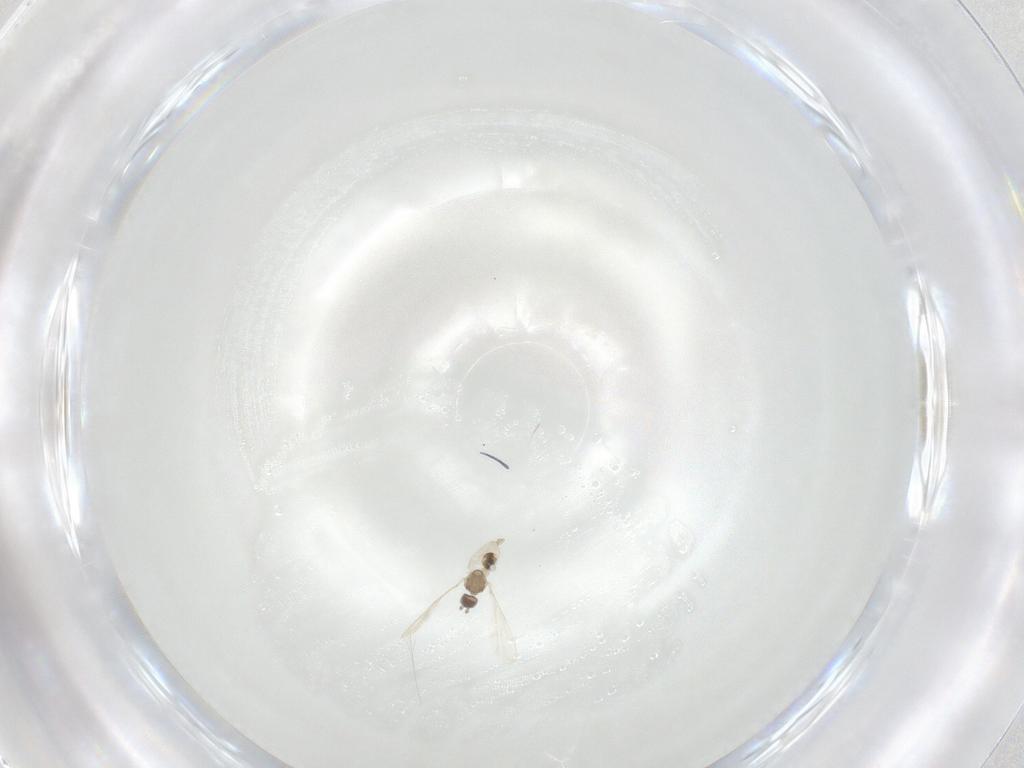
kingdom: Animalia
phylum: Arthropoda
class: Insecta
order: Diptera
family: Cecidomyiidae
